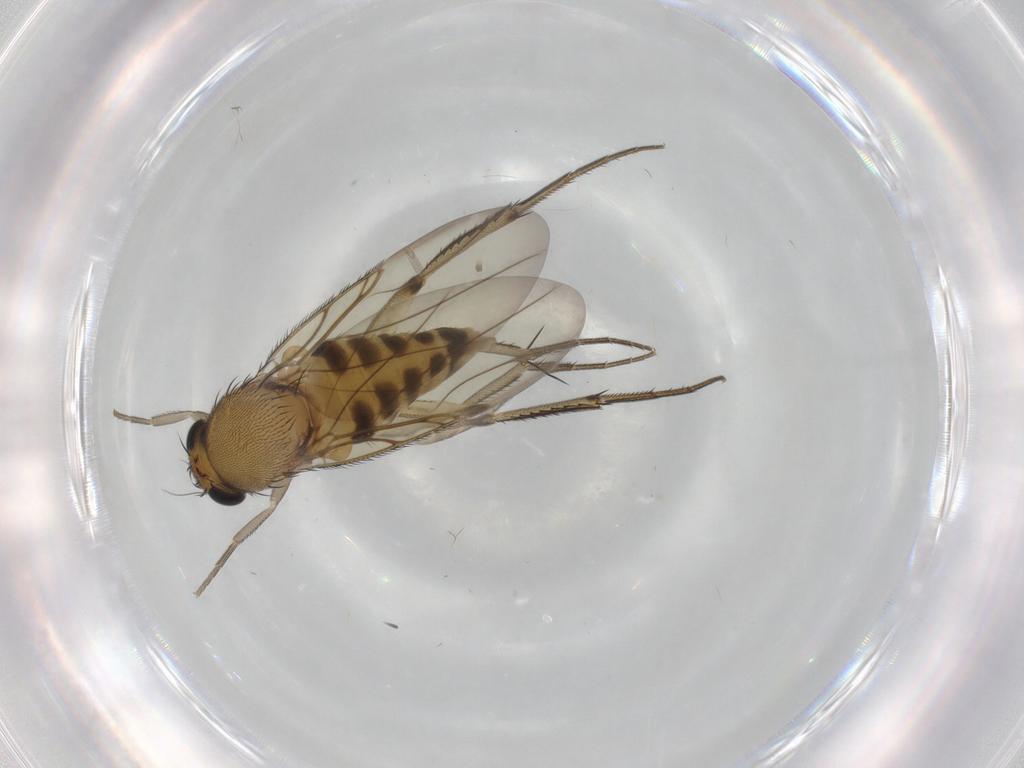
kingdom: Animalia
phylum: Arthropoda
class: Insecta
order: Diptera
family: Phoridae
